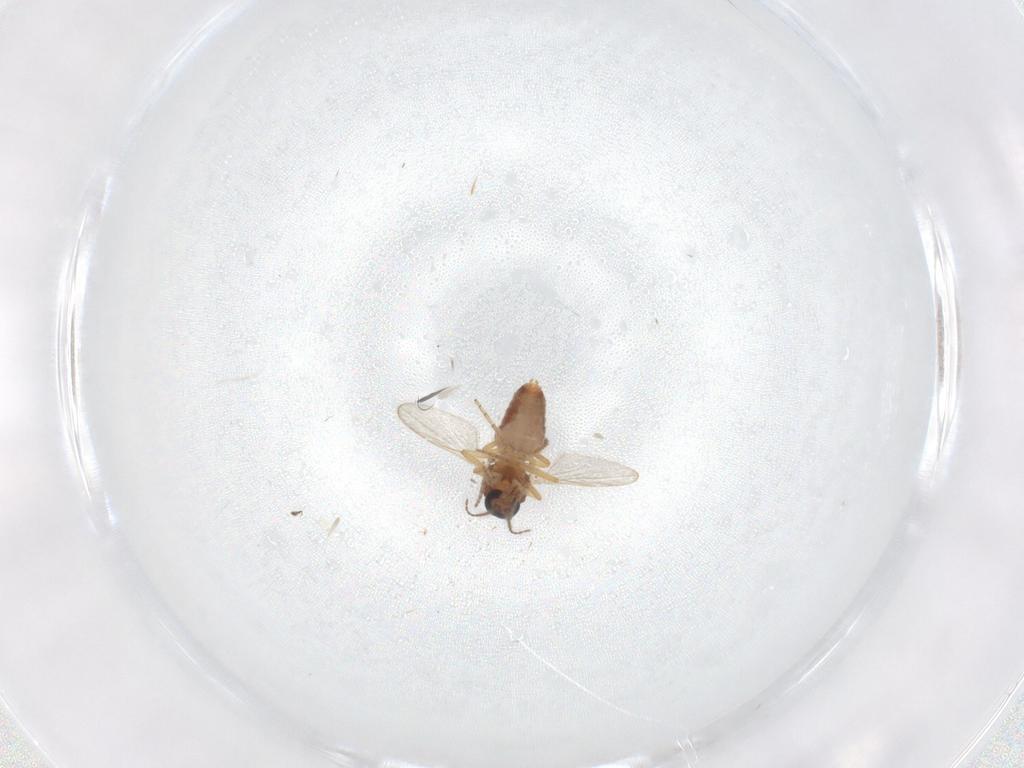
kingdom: Animalia
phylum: Arthropoda
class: Insecta
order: Diptera
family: Ceratopogonidae
